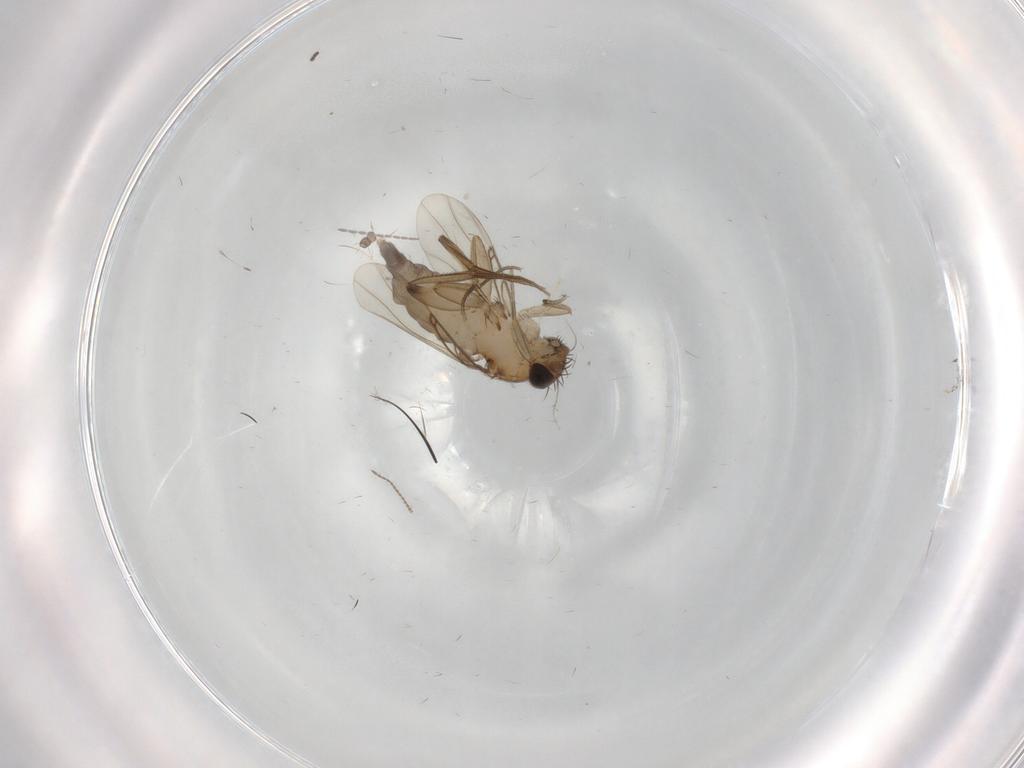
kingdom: Animalia
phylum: Arthropoda
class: Insecta
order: Diptera
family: Phoridae
